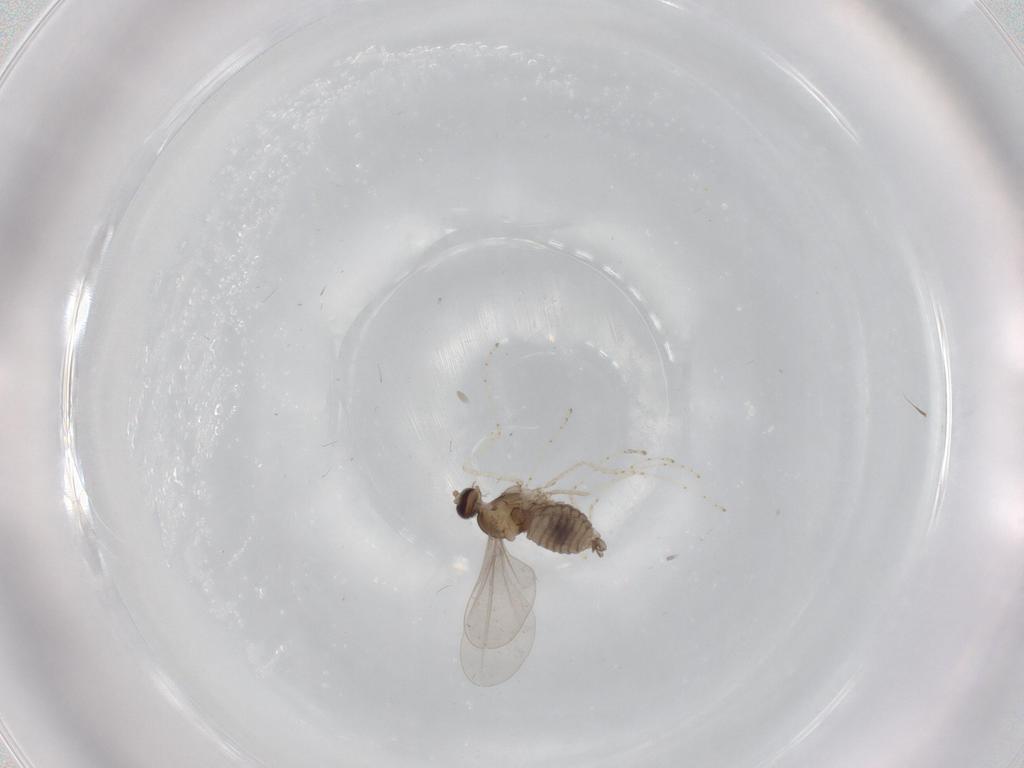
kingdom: Animalia
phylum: Arthropoda
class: Insecta
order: Diptera
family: Cecidomyiidae
